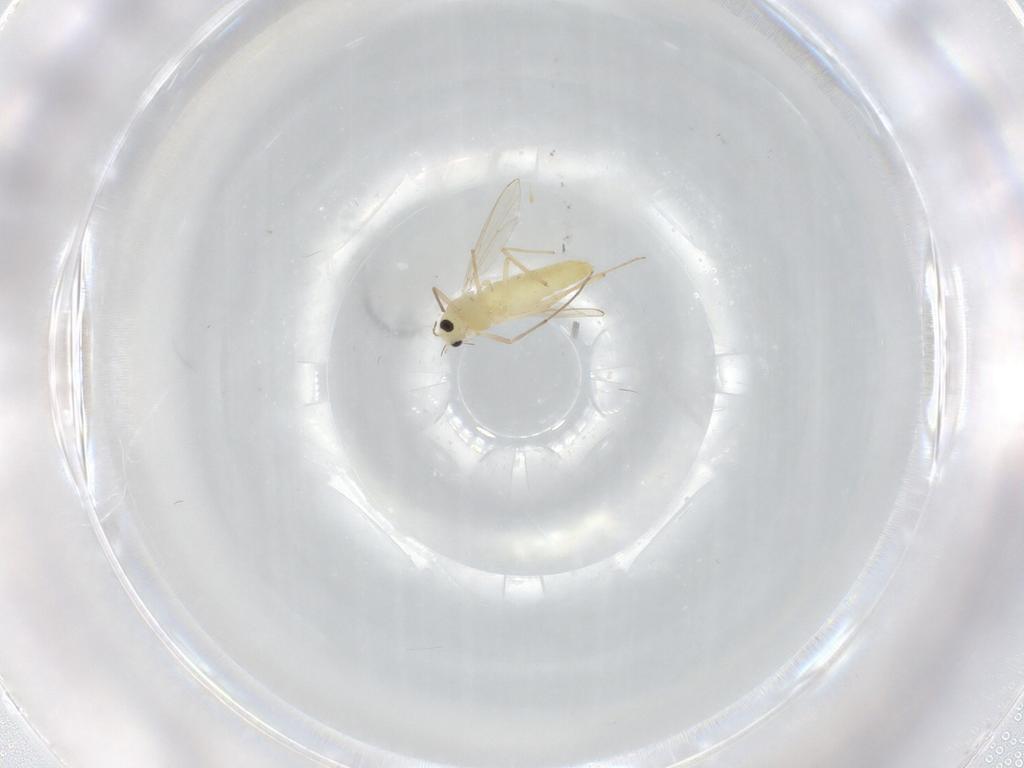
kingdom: Animalia
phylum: Arthropoda
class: Insecta
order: Diptera
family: Chironomidae
